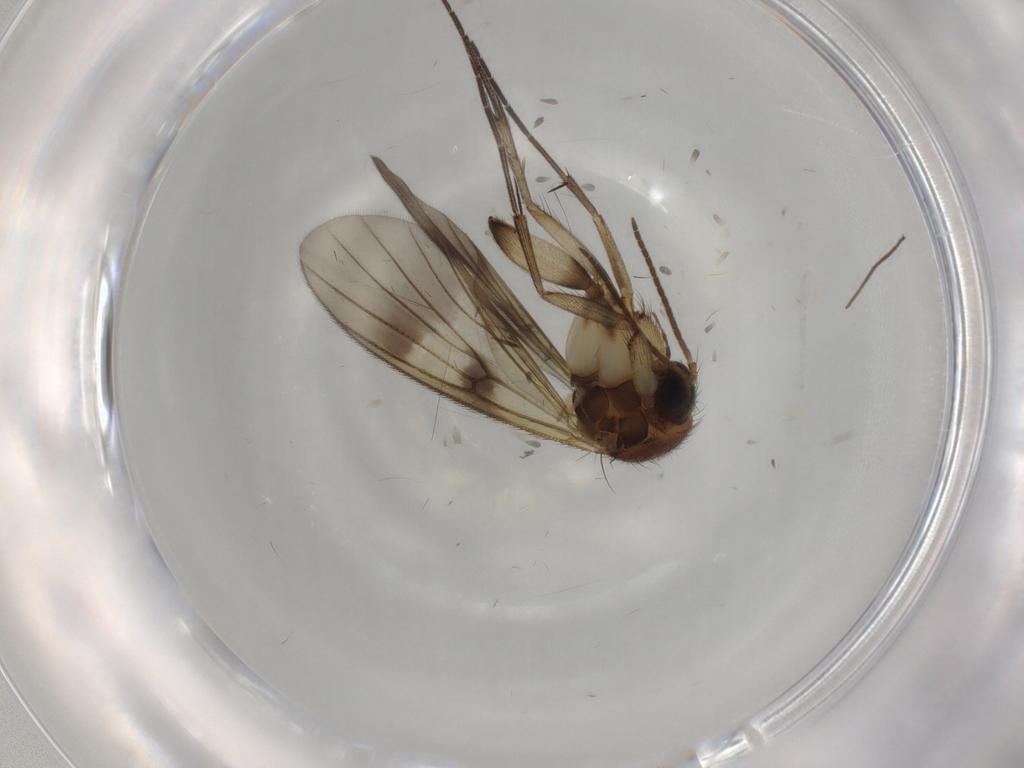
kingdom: Animalia
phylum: Arthropoda
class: Insecta
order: Diptera
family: Mycetophilidae
